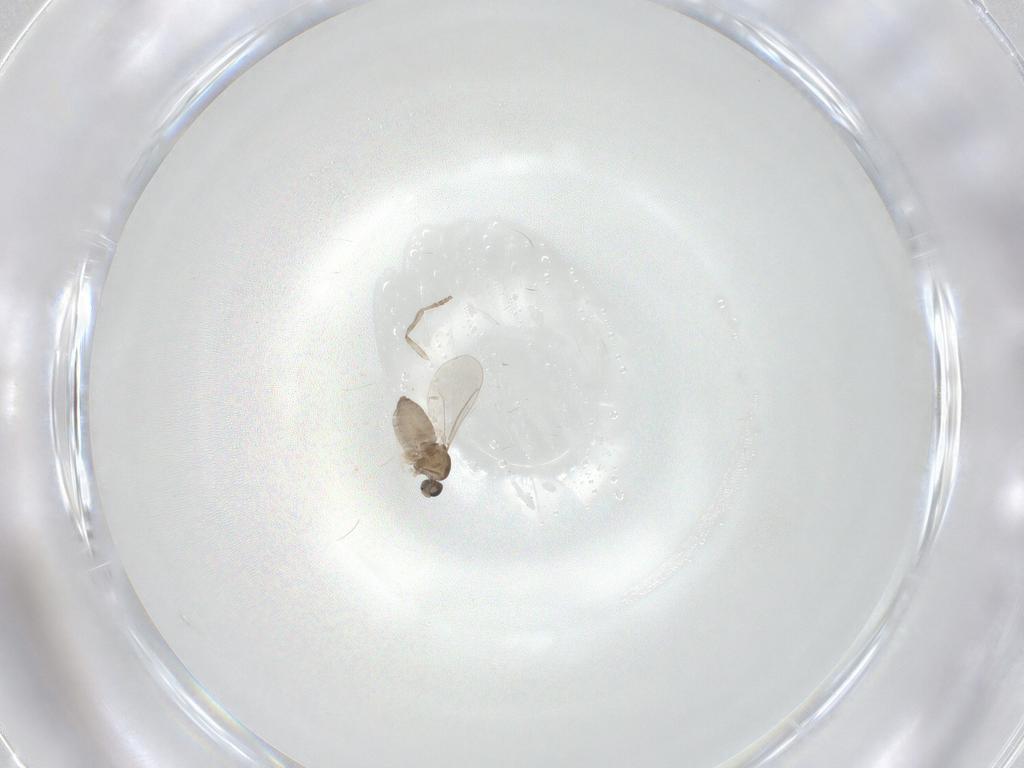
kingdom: Animalia
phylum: Arthropoda
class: Insecta
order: Diptera
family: Cecidomyiidae
